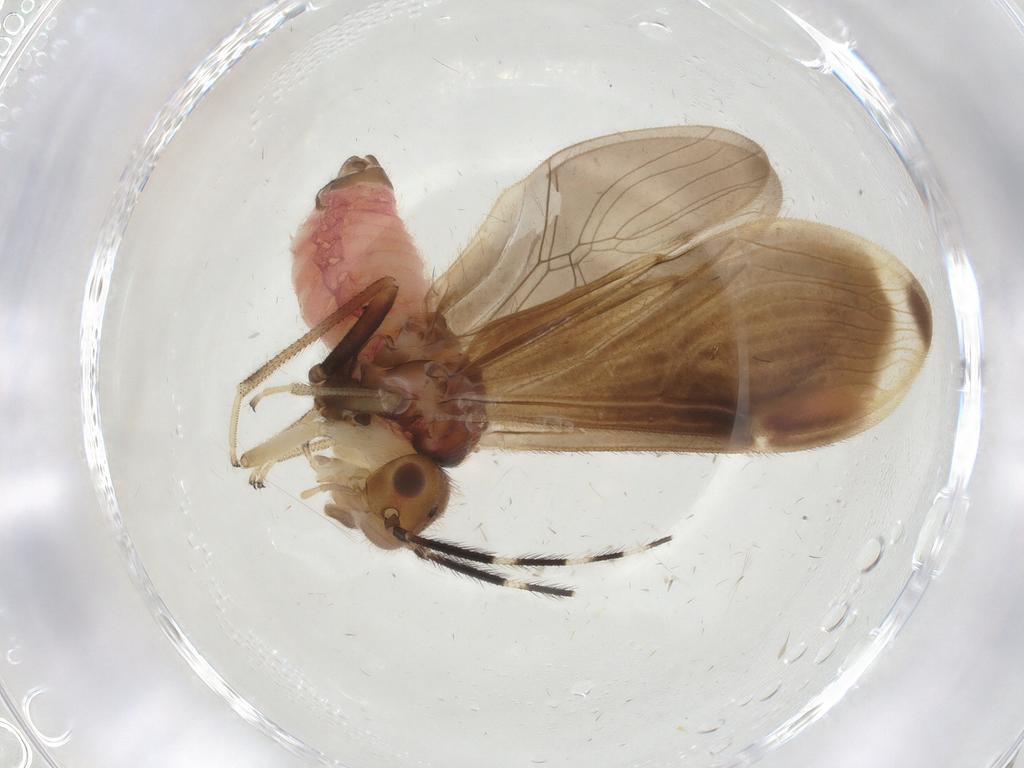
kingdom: Animalia
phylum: Arthropoda
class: Insecta
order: Psocodea
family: Amphipsocidae
